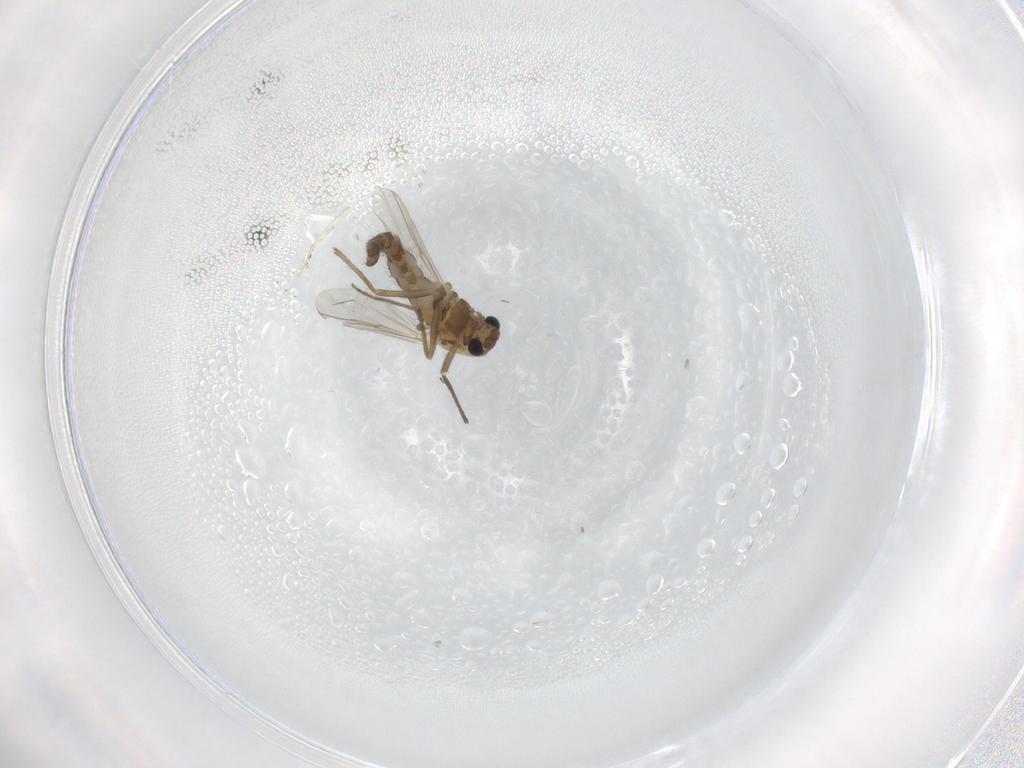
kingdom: Animalia
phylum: Arthropoda
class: Insecta
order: Diptera
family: Chironomidae
